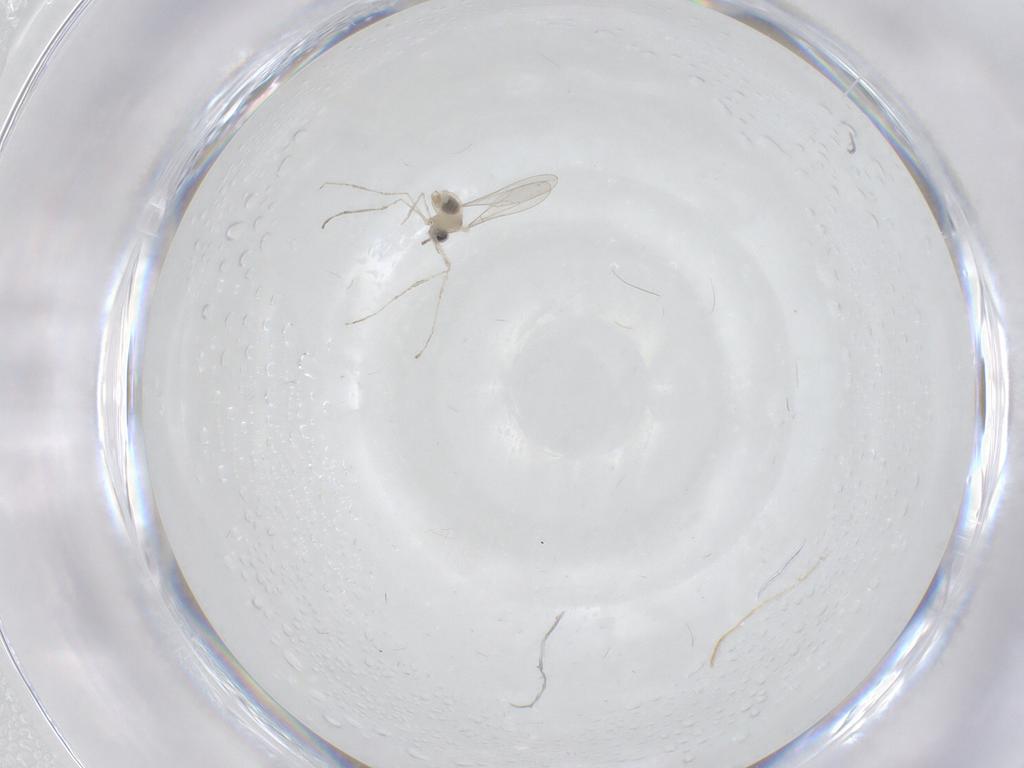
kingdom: Animalia
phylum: Arthropoda
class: Insecta
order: Diptera
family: Cecidomyiidae
